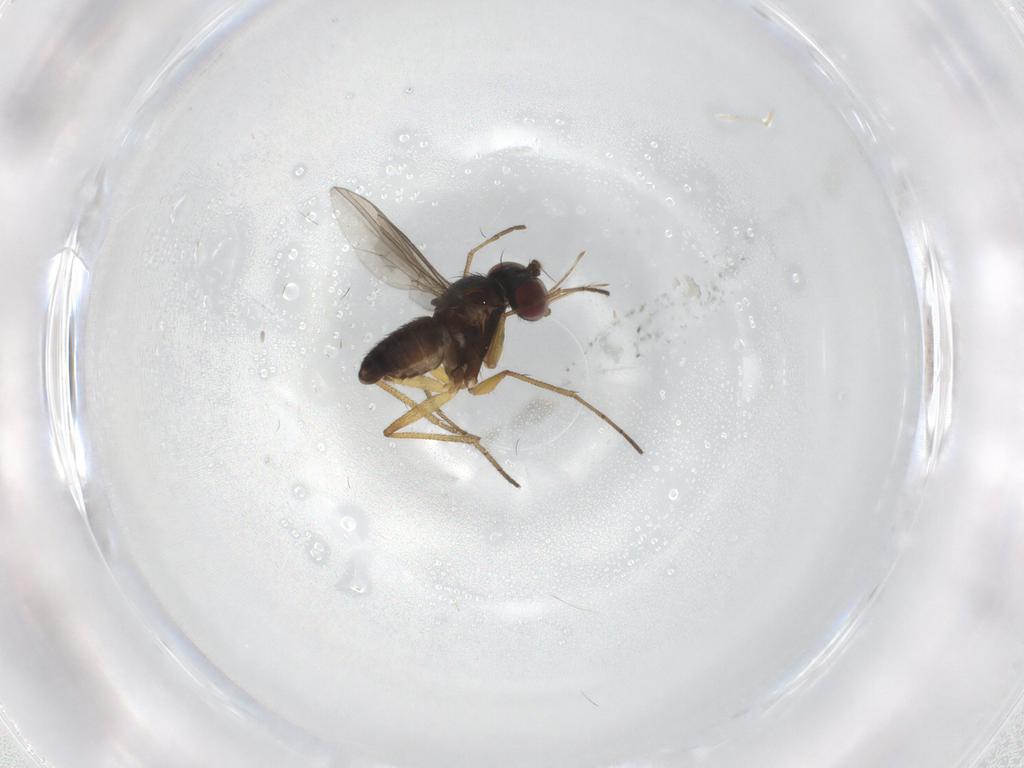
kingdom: Animalia
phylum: Arthropoda
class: Insecta
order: Diptera
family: Dolichopodidae
